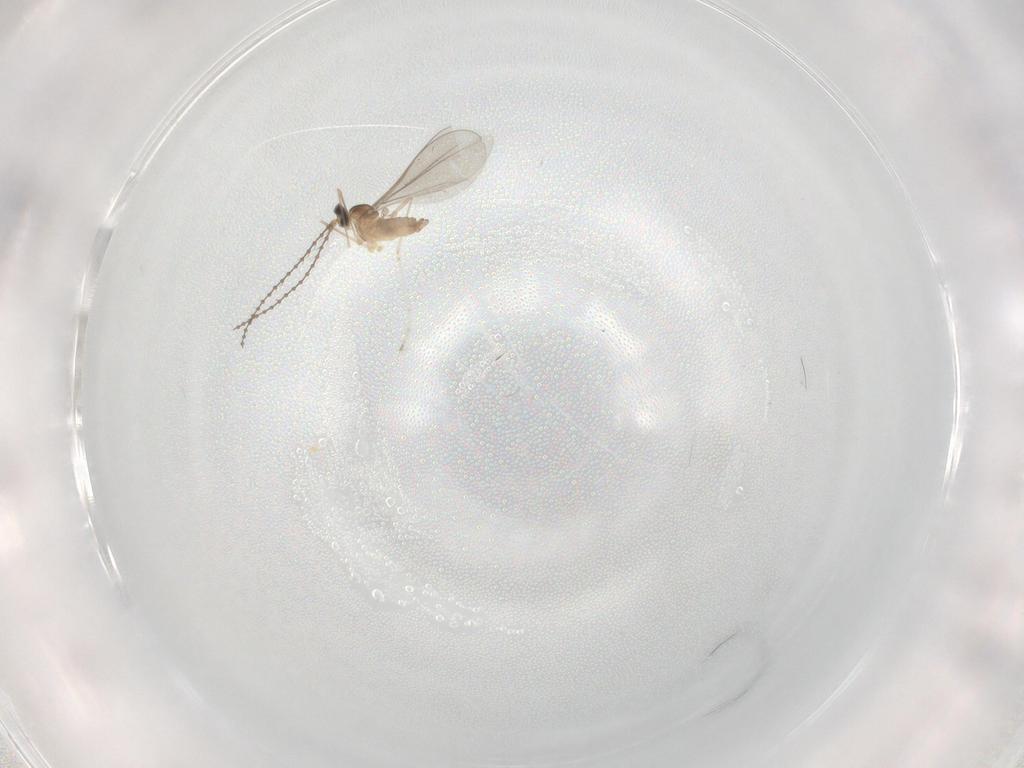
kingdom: Animalia
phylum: Arthropoda
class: Insecta
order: Diptera
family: Cecidomyiidae
